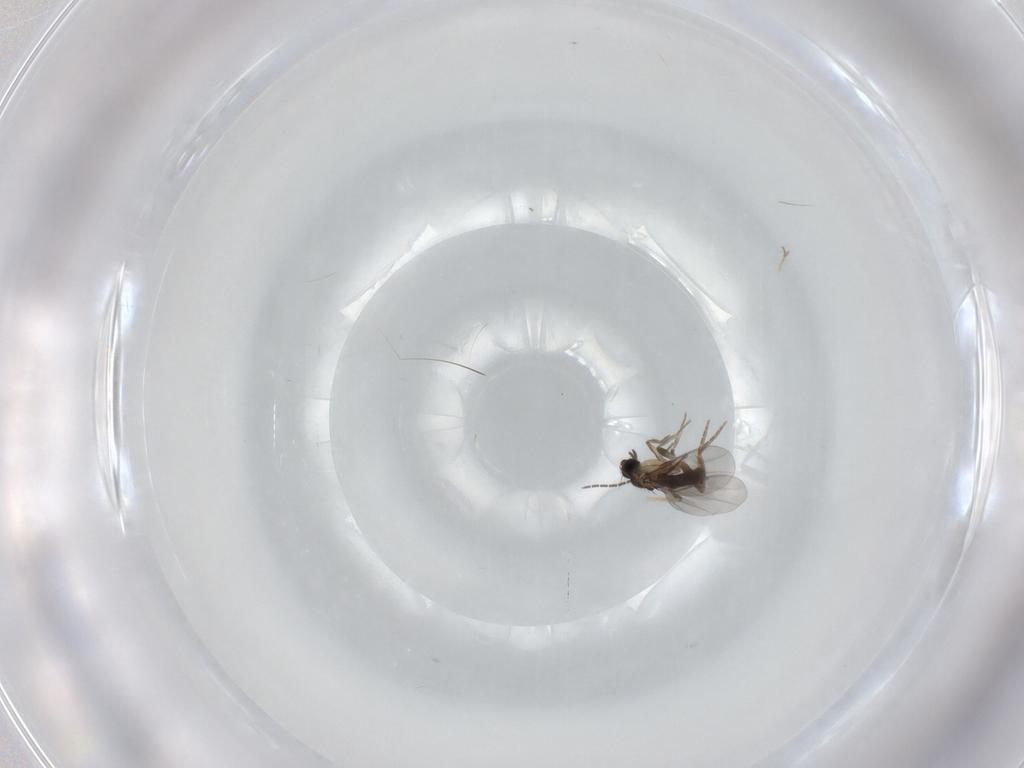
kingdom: Animalia
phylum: Arthropoda
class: Insecta
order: Diptera
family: Sciaridae
